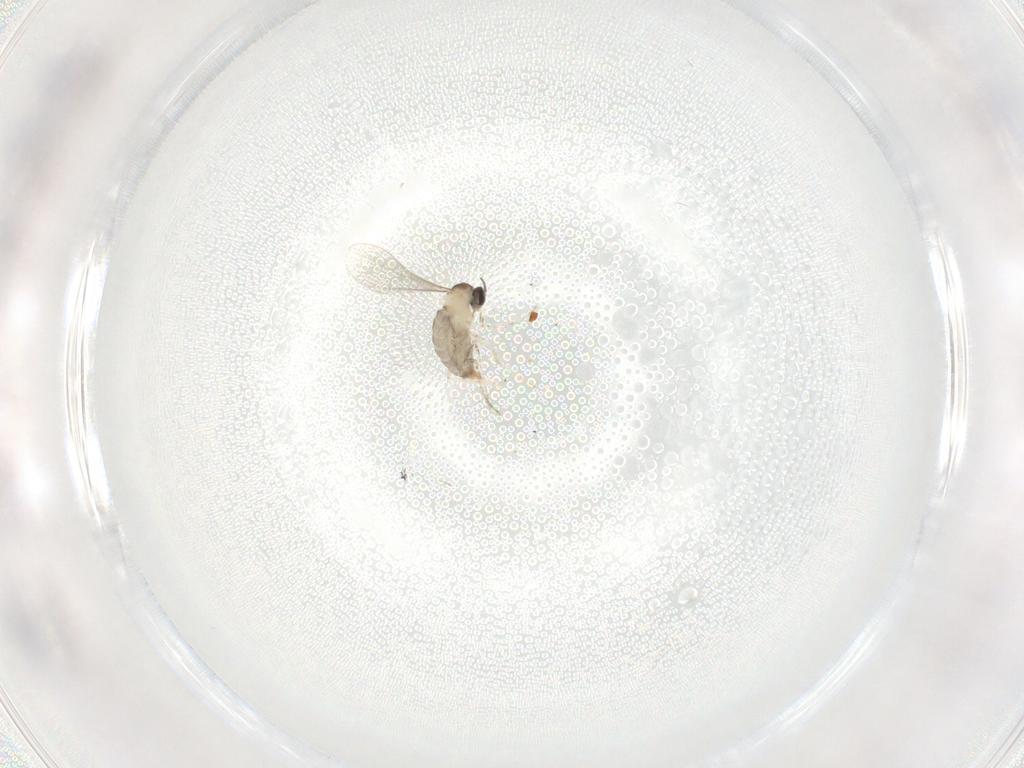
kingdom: Animalia
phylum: Arthropoda
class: Insecta
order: Diptera
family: Cecidomyiidae
